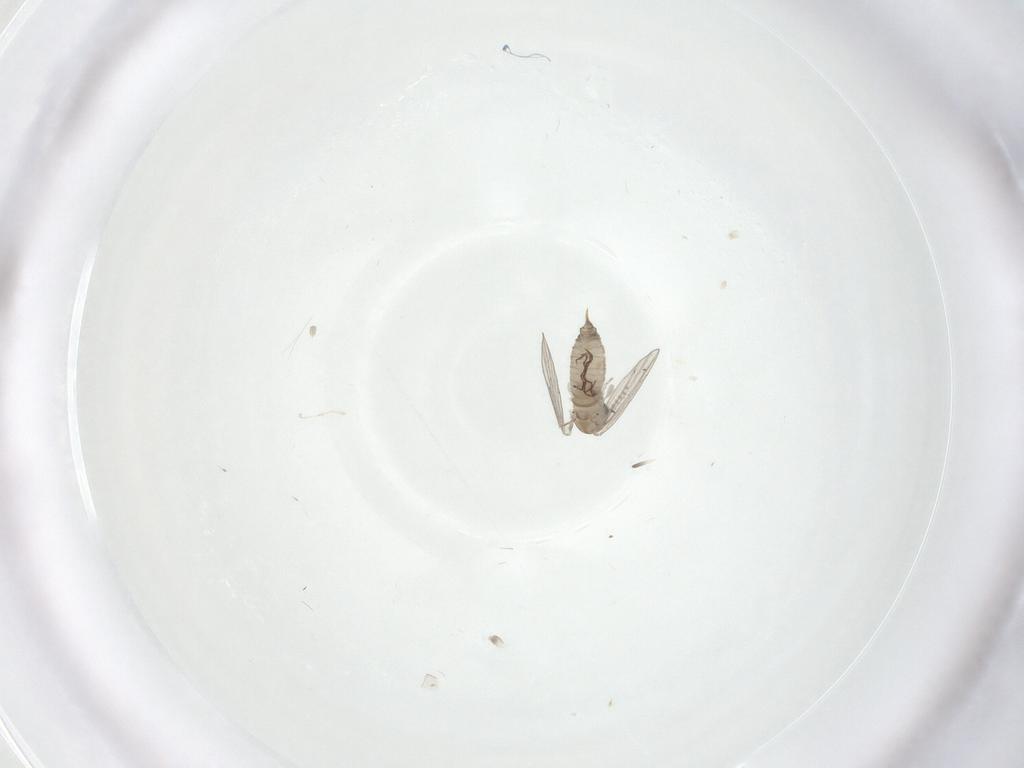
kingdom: Animalia
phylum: Arthropoda
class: Insecta
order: Diptera
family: Psychodidae
